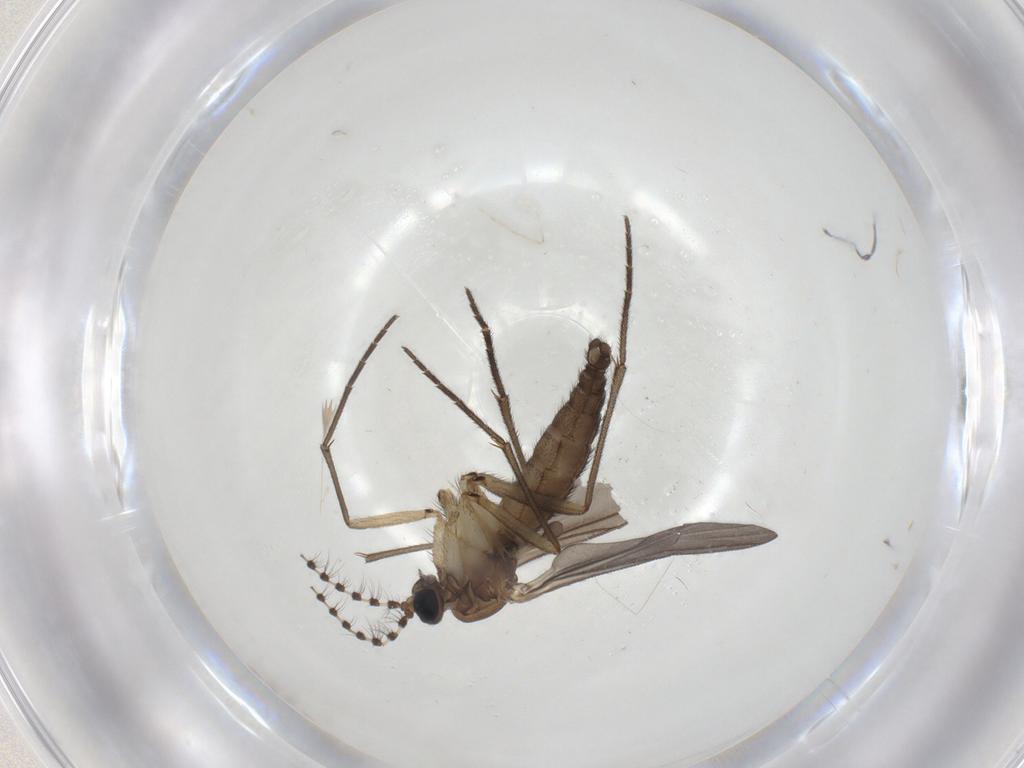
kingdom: Animalia
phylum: Arthropoda
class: Insecta
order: Diptera
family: Sciaridae
